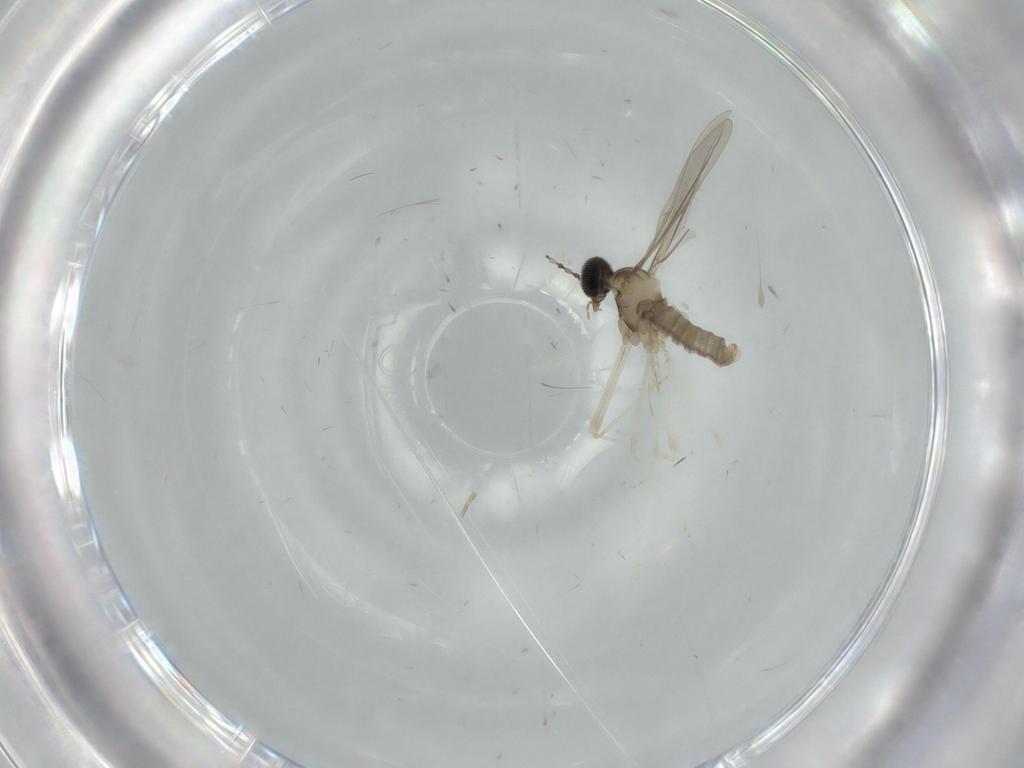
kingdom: Animalia
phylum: Arthropoda
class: Insecta
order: Diptera
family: Cecidomyiidae
